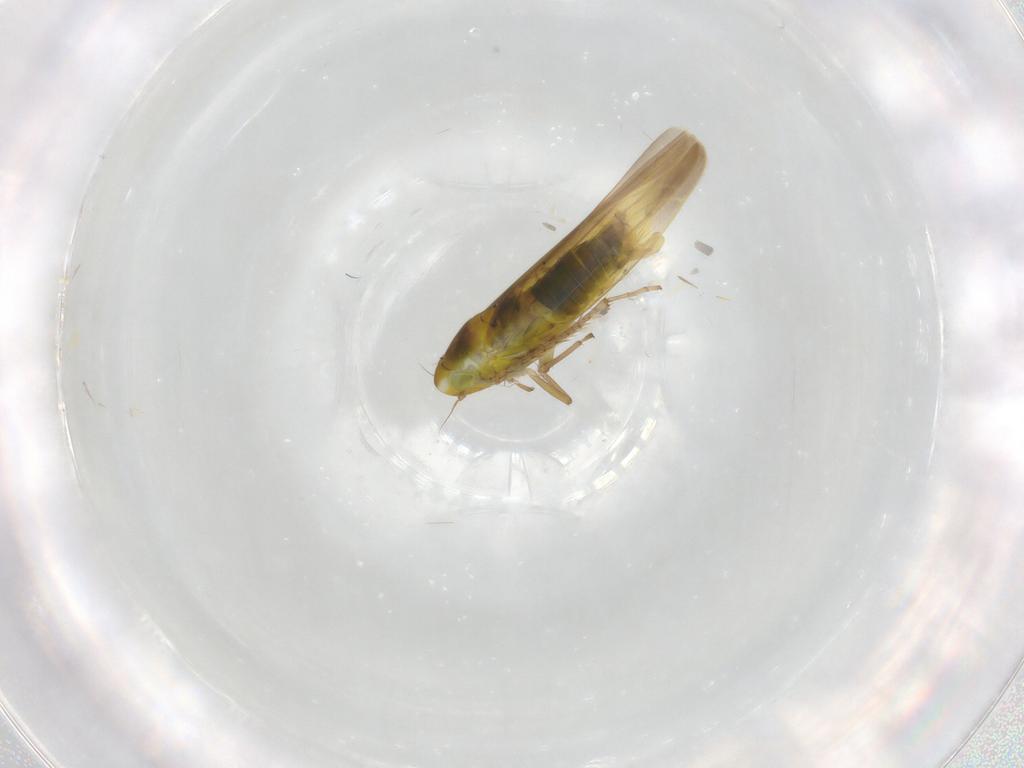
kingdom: Animalia
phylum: Arthropoda
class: Insecta
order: Hemiptera
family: Cicadellidae
